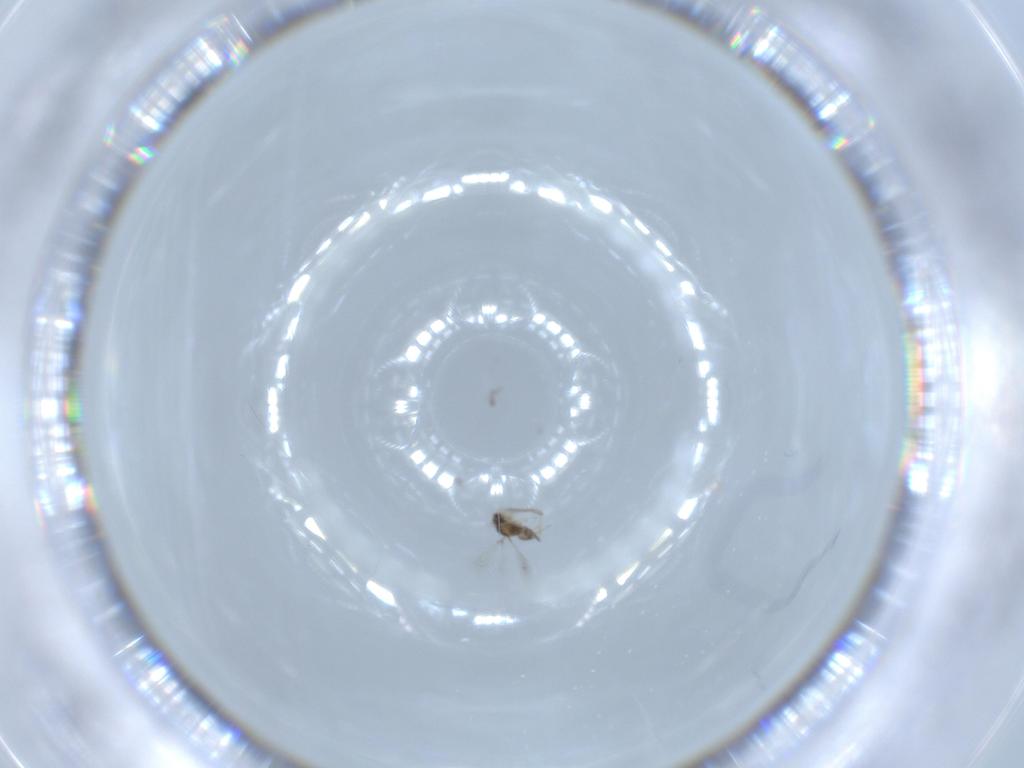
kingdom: Animalia
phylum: Arthropoda
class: Insecta
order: Hymenoptera
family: Mymaridae
